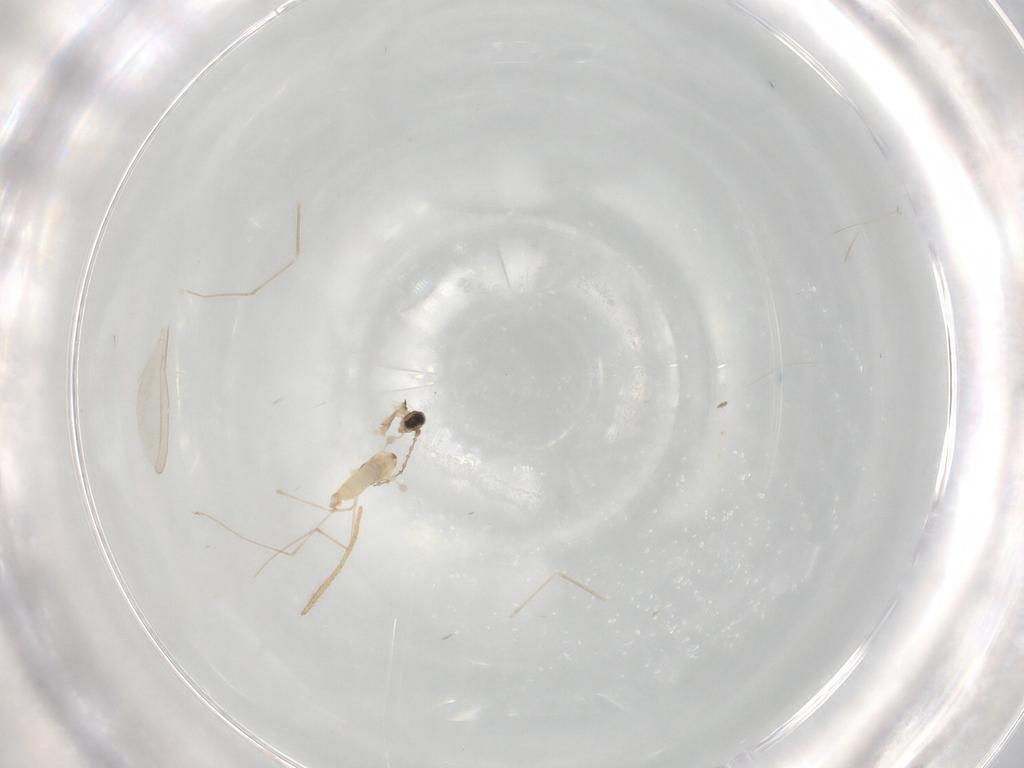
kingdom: Animalia
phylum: Arthropoda
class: Insecta
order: Diptera
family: Cecidomyiidae
